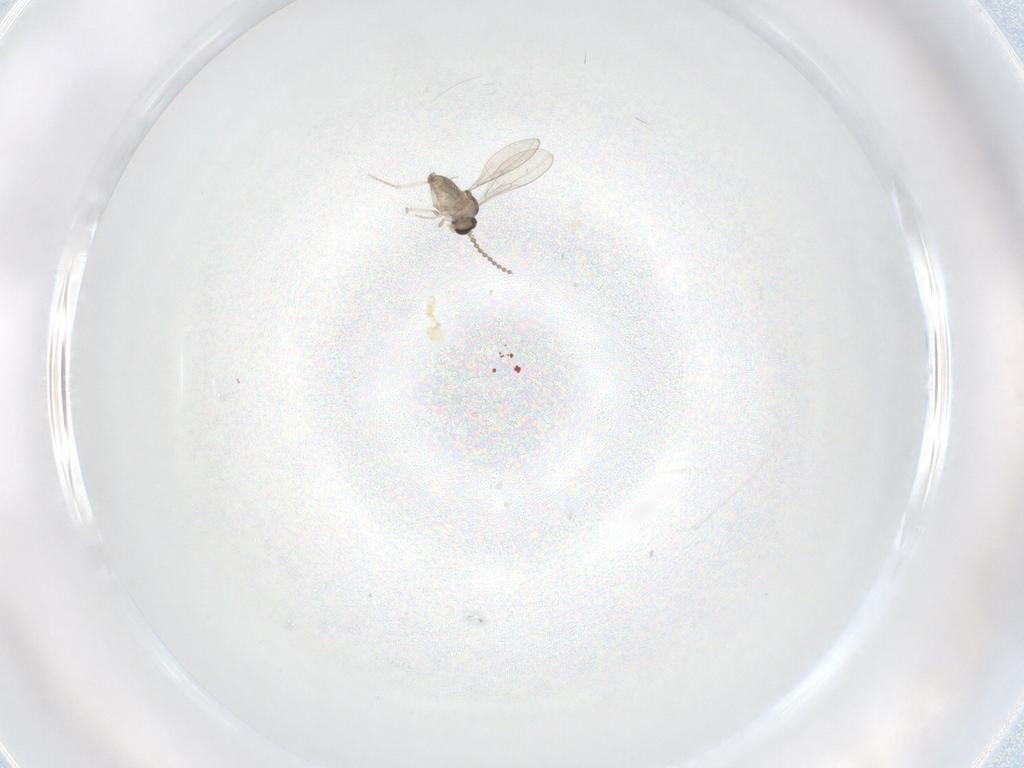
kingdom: Animalia
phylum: Arthropoda
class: Insecta
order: Diptera
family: Cecidomyiidae
